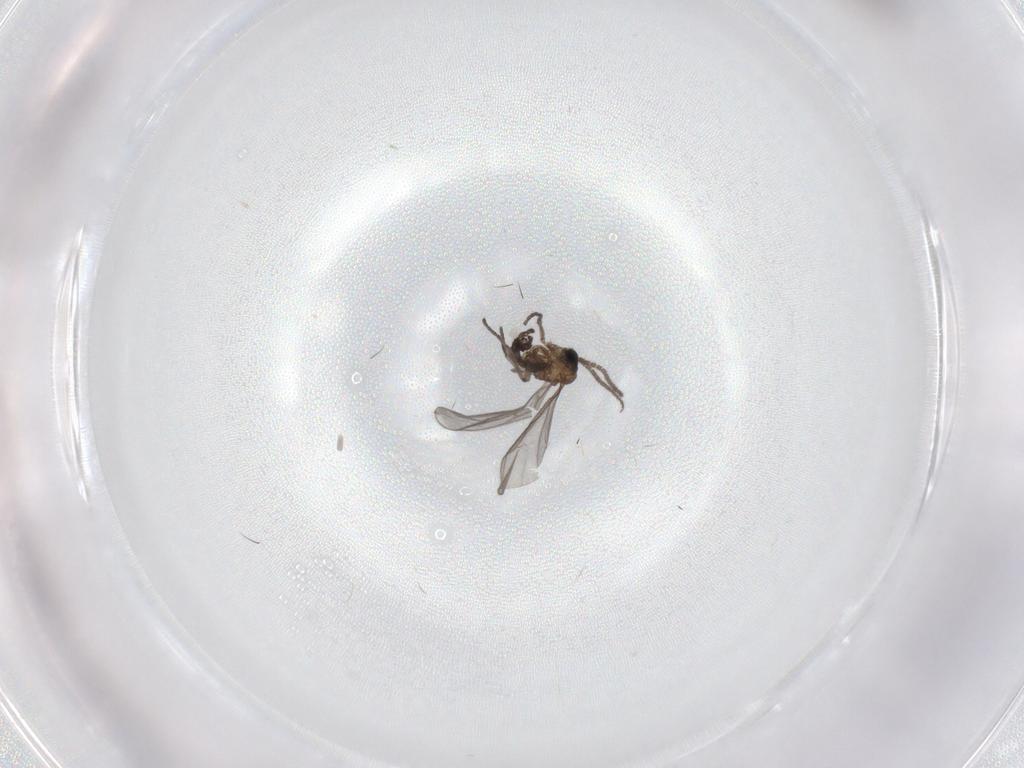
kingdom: Animalia
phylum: Arthropoda
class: Insecta
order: Diptera
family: Sciaridae
